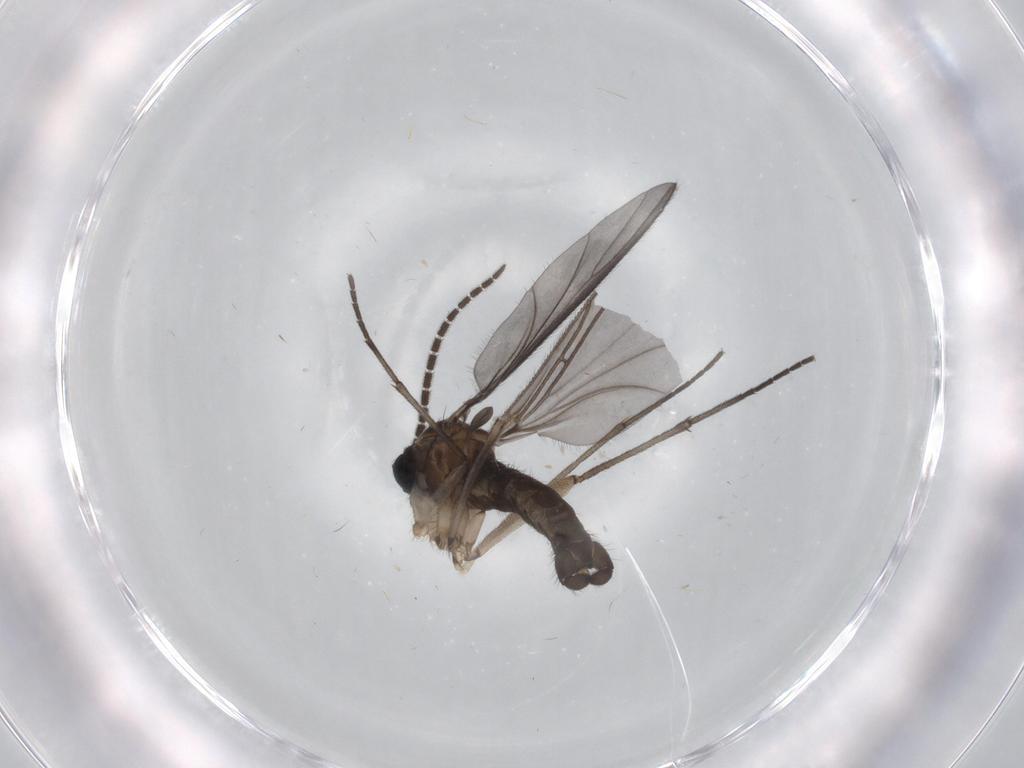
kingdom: Animalia
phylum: Arthropoda
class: Insecta
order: Diptera
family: Sciaridae
